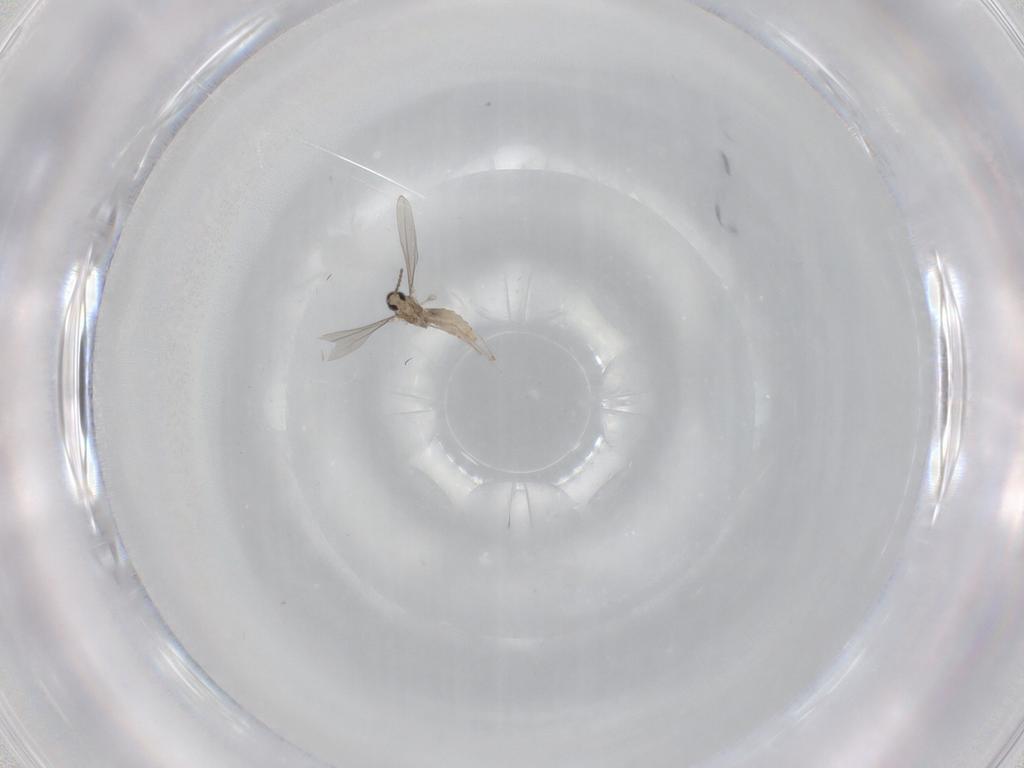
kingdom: Animalia
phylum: Arthropoda
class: Insecta
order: Diptera
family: Cecidomyiidae
